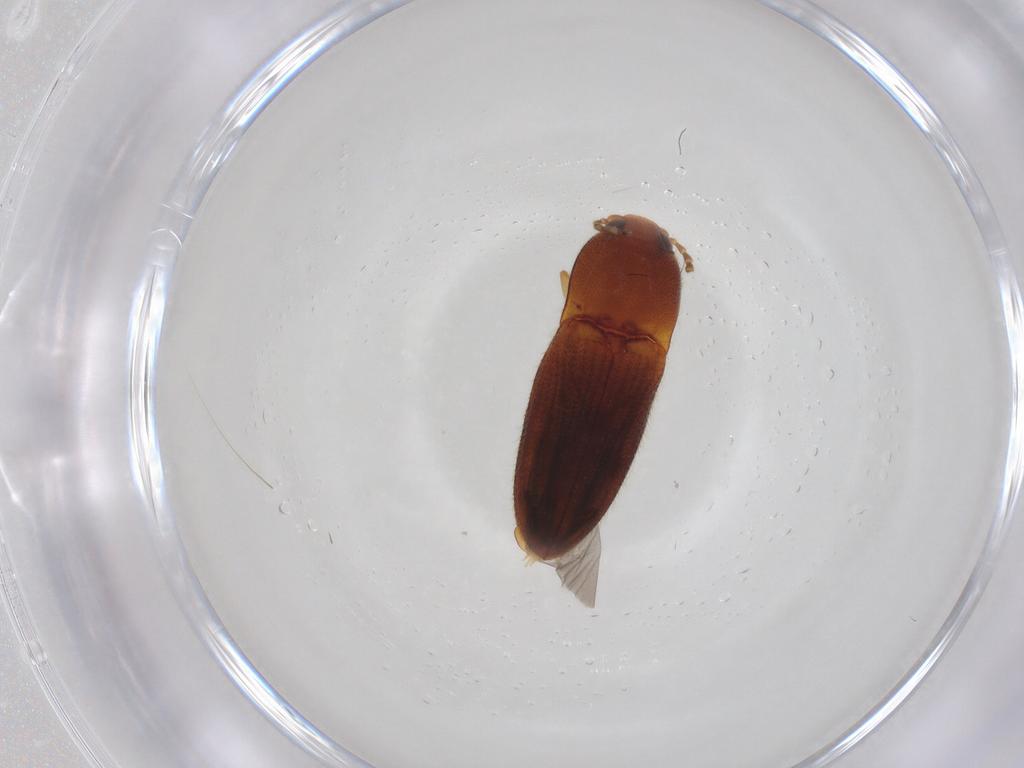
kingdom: Animalia
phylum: Arthropoda
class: Insecta
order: Coleoptera
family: Elateridae
